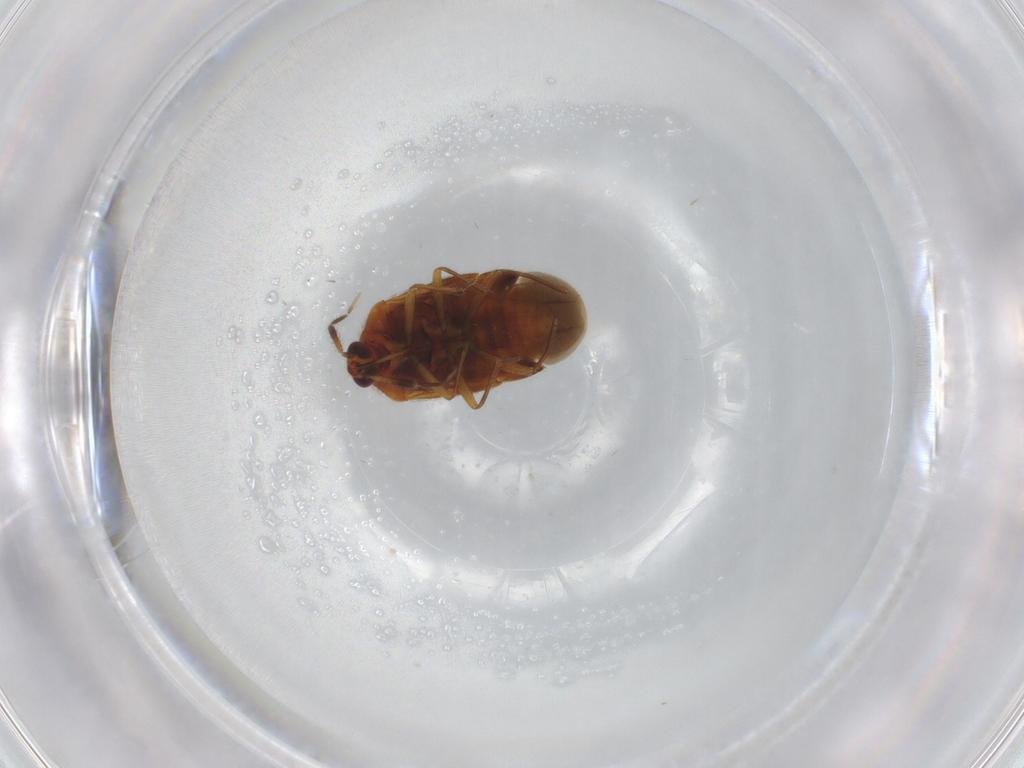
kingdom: Animalia
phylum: Arthropoda
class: Insecta
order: Hemiptera
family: Anthocoridae
